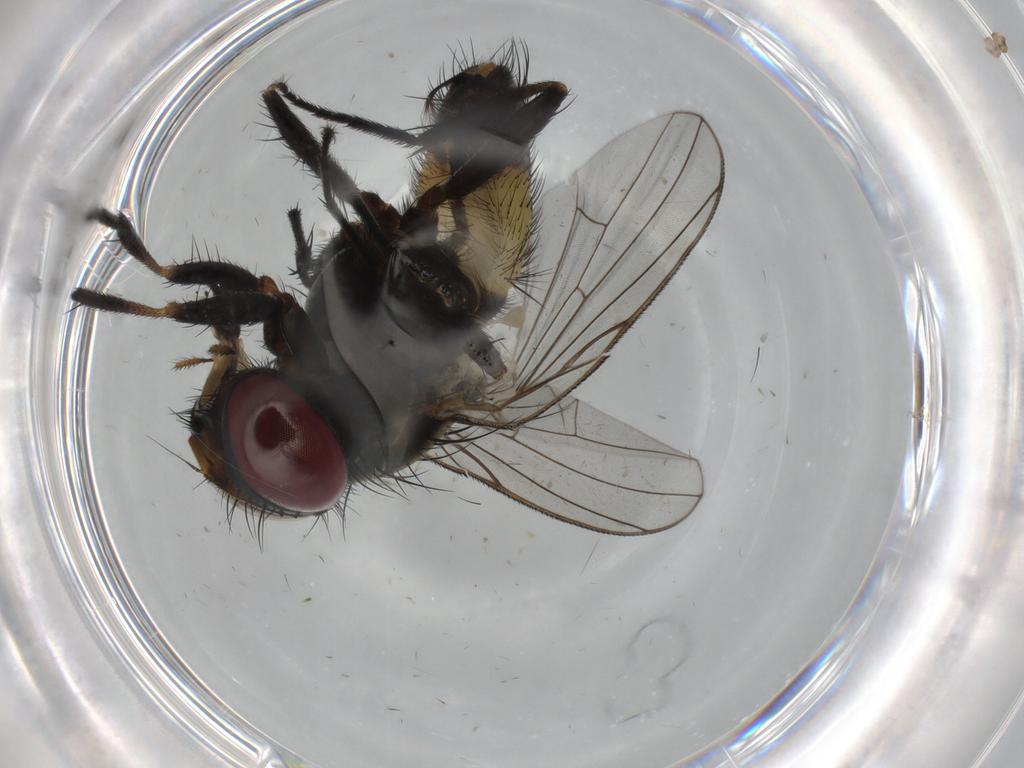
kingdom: Animalia
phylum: Arthropoda
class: Insecta
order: Diptera
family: Fannia
